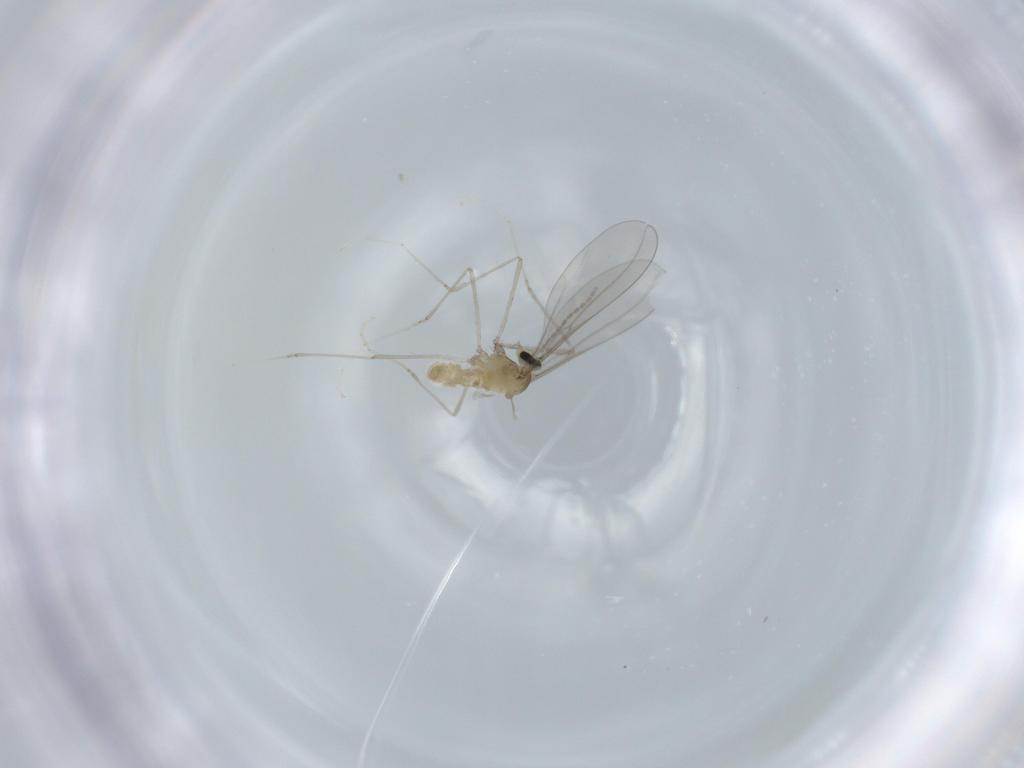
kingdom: Animalia
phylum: Arthropoda
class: Insecta
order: Diptera
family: Cecidomyiidae
